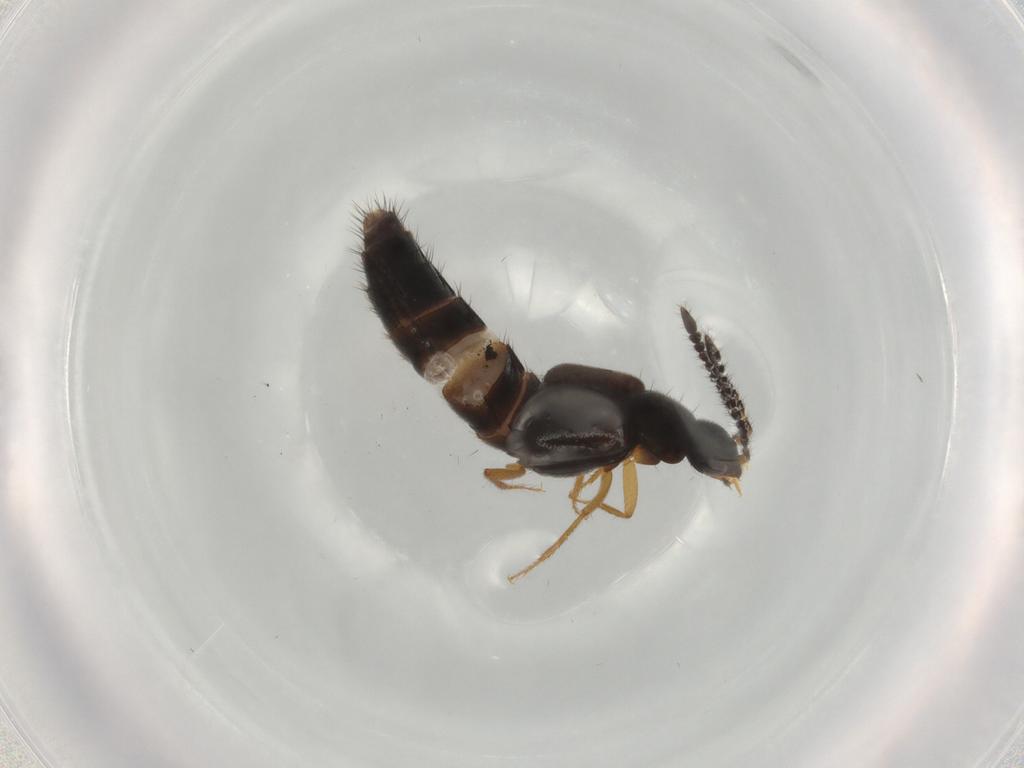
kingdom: Animalia
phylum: Arthropoda
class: Insecta
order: Coleoptera
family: Staphylinidae
